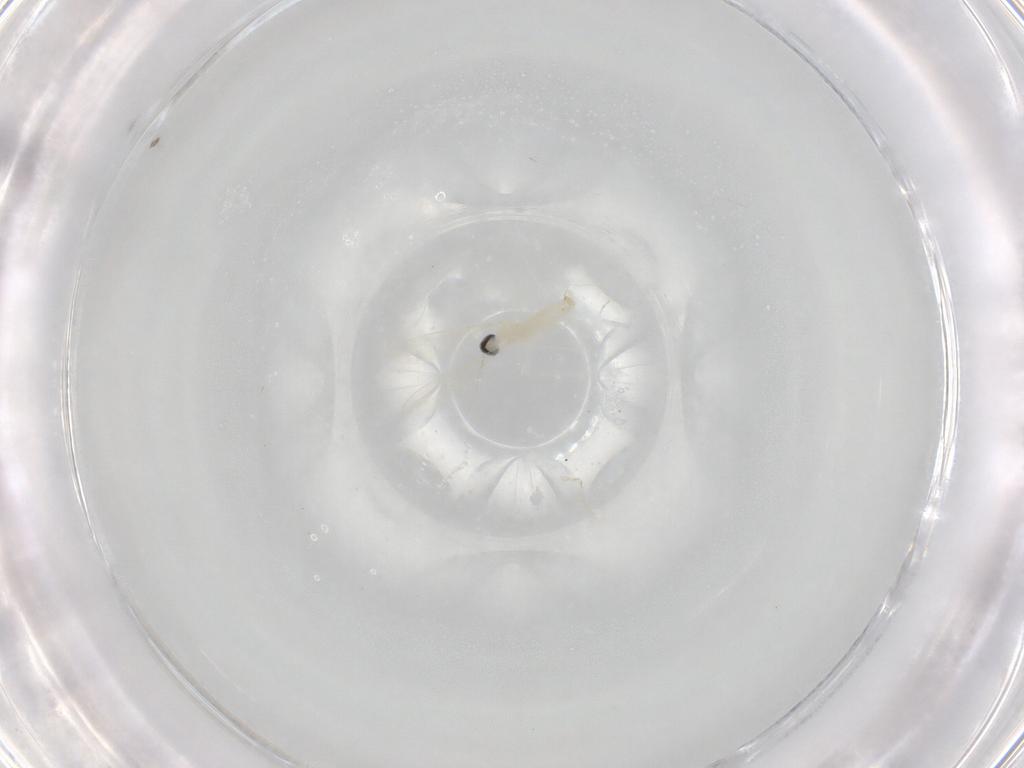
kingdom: Animalia
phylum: Arthropoda
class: Insecta
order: Diptera
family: Cecidomyiidae
